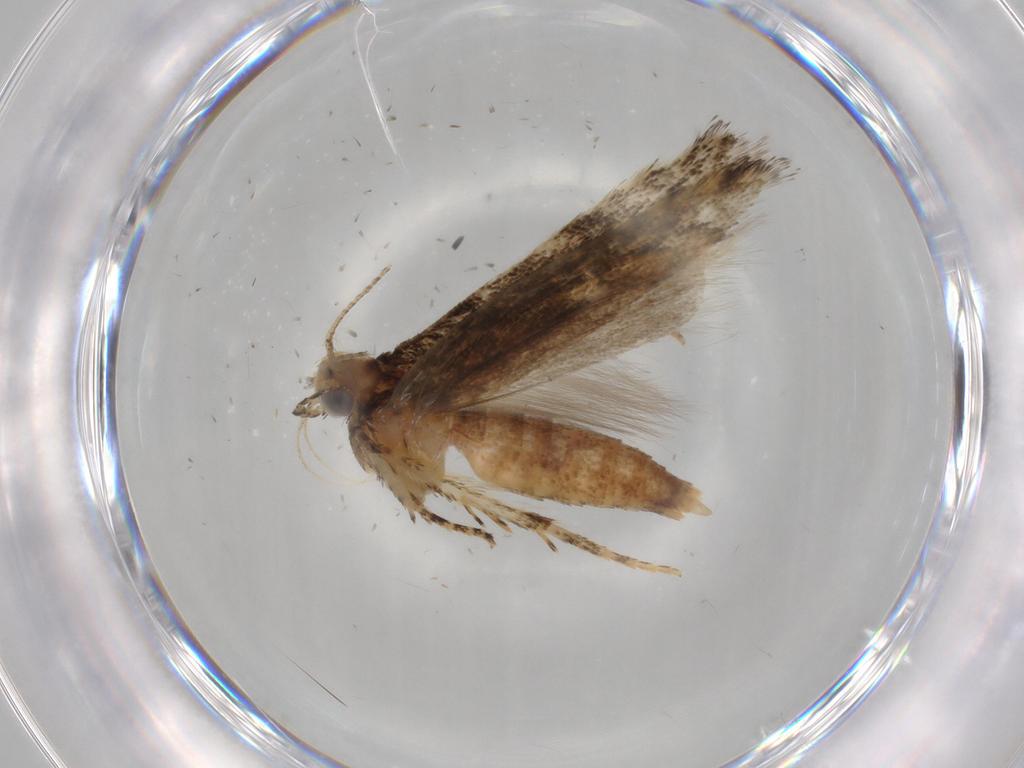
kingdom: Animalia
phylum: Arthropoda
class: Insecta
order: Lepidoptera
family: Gelechiidae
